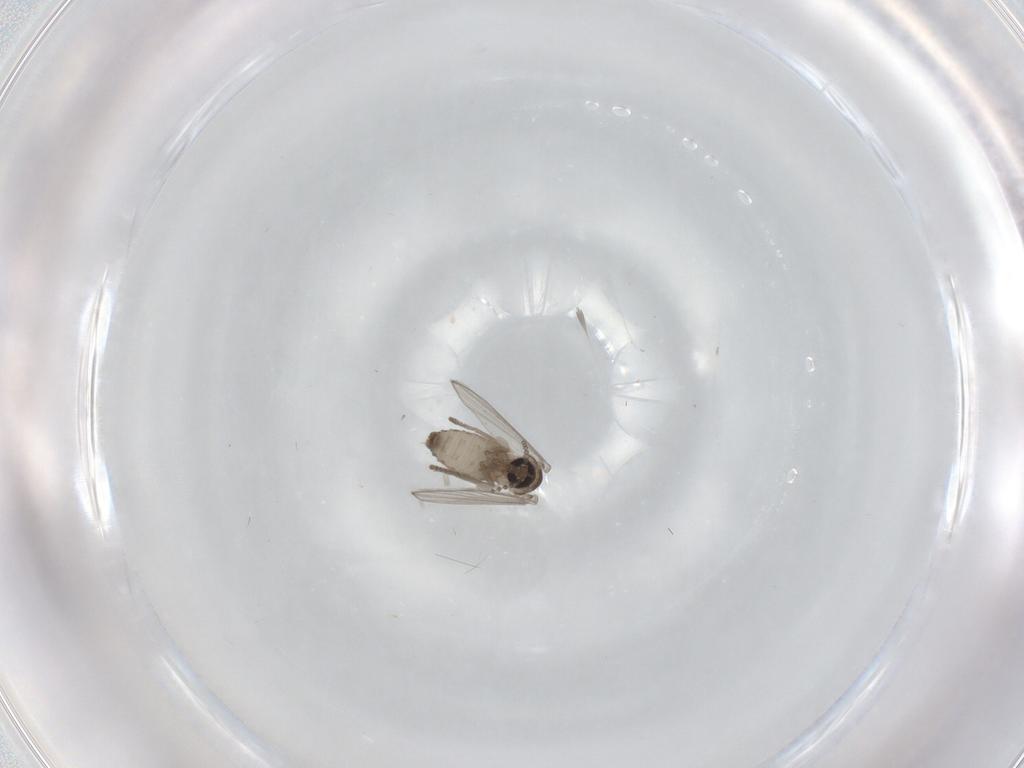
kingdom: Animalia
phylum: Arthropoda
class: Insecta
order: Diptera
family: Psychodidae
